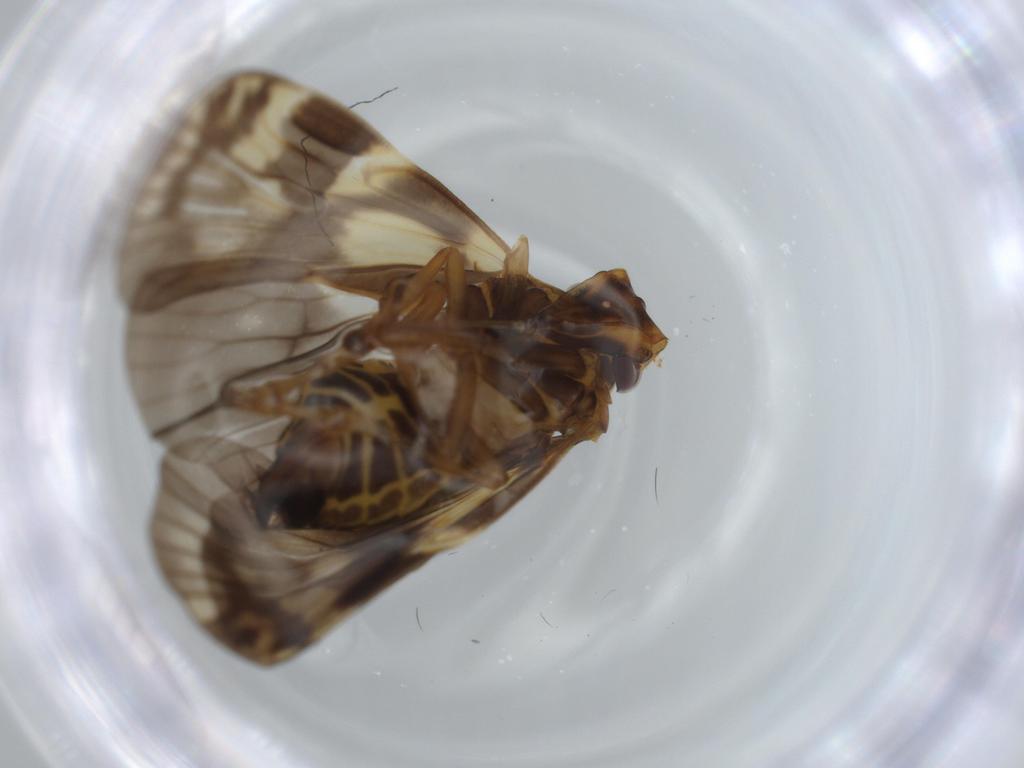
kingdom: Animalia
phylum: Arthropoda
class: Insecta
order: Hemiptera
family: Cixiidae
